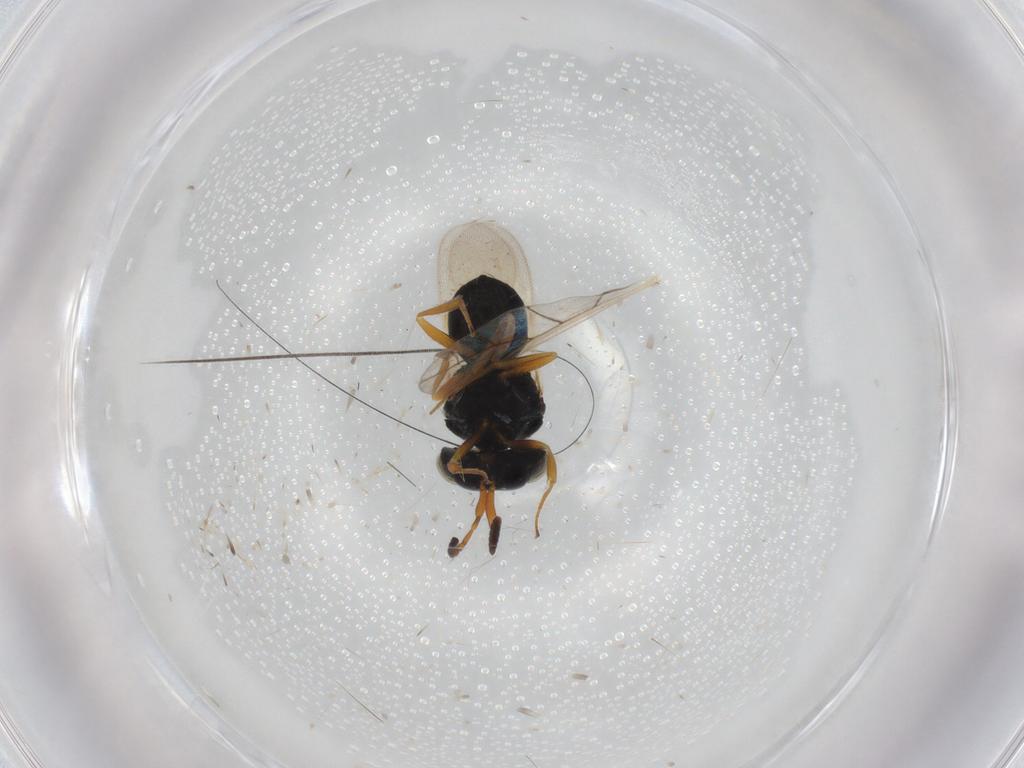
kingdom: Animalia
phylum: Arthropoda
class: Insecta
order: Hymenoptera
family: Scelionidae
